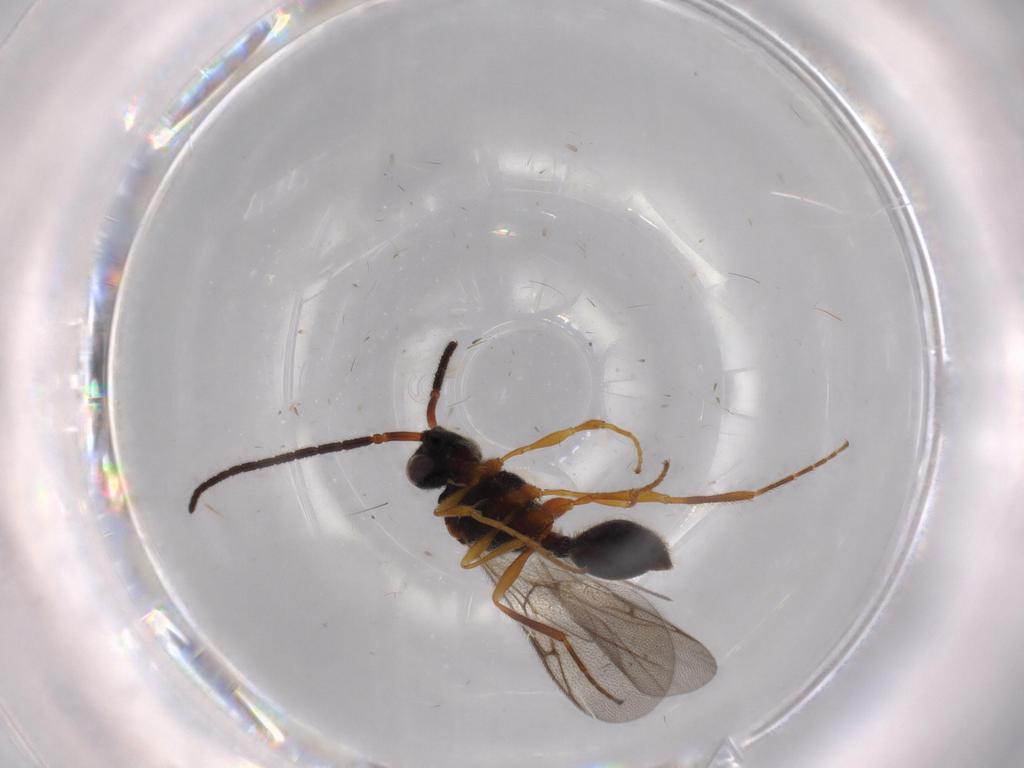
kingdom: Animalia
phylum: Arthropoda
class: Insecta
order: Hymenoptera
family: Diapriidae
